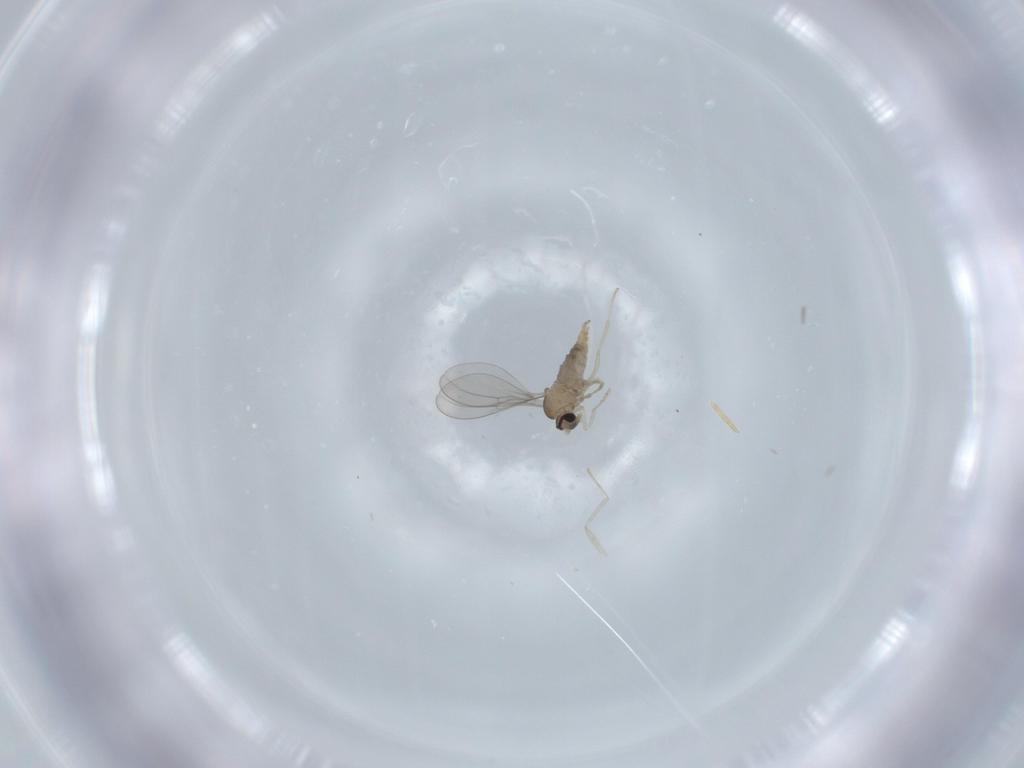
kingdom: Animalia
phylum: Arthropoda
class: Insecta
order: Diptera
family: Cecidomyiidae
